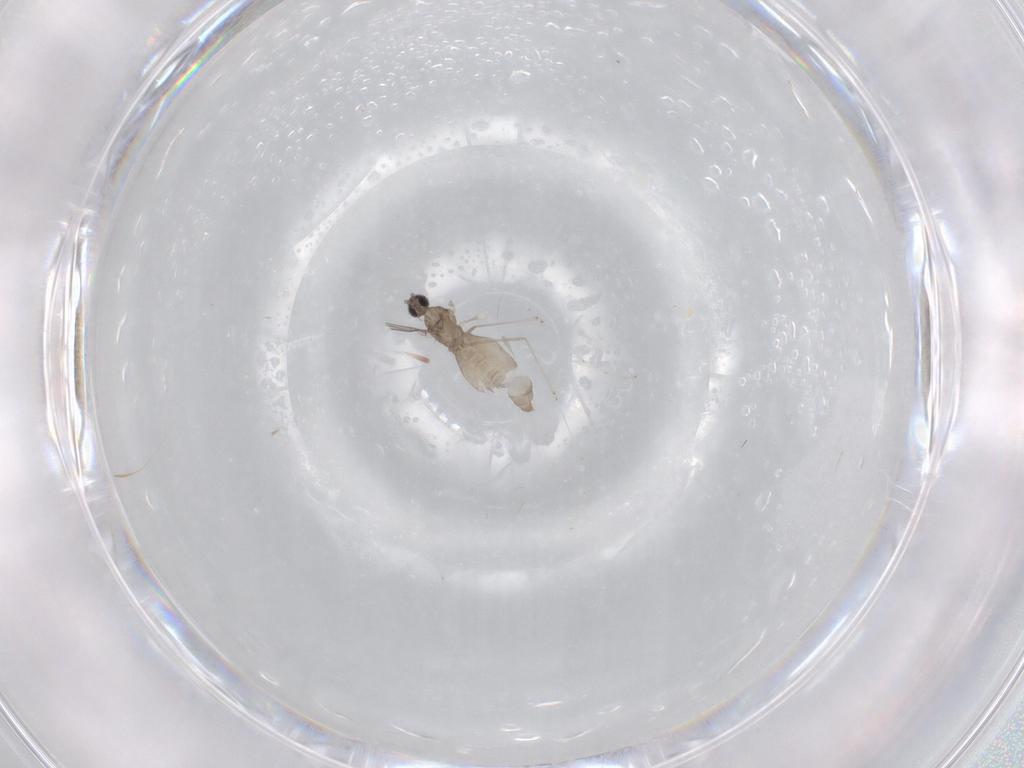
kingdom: Animalia
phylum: Arthropoda
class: Insecta
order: Diptera
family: Cecidomyiidae
